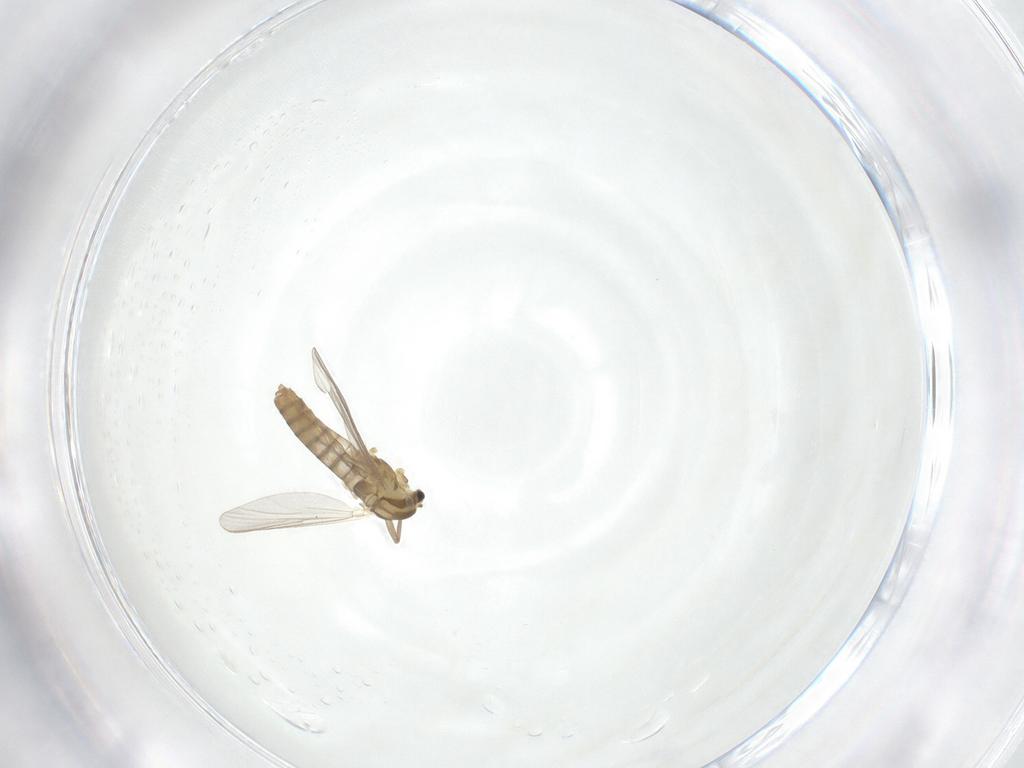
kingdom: Animalia
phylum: Arthropoda
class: Insecta
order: Diptera
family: Chironomidae
